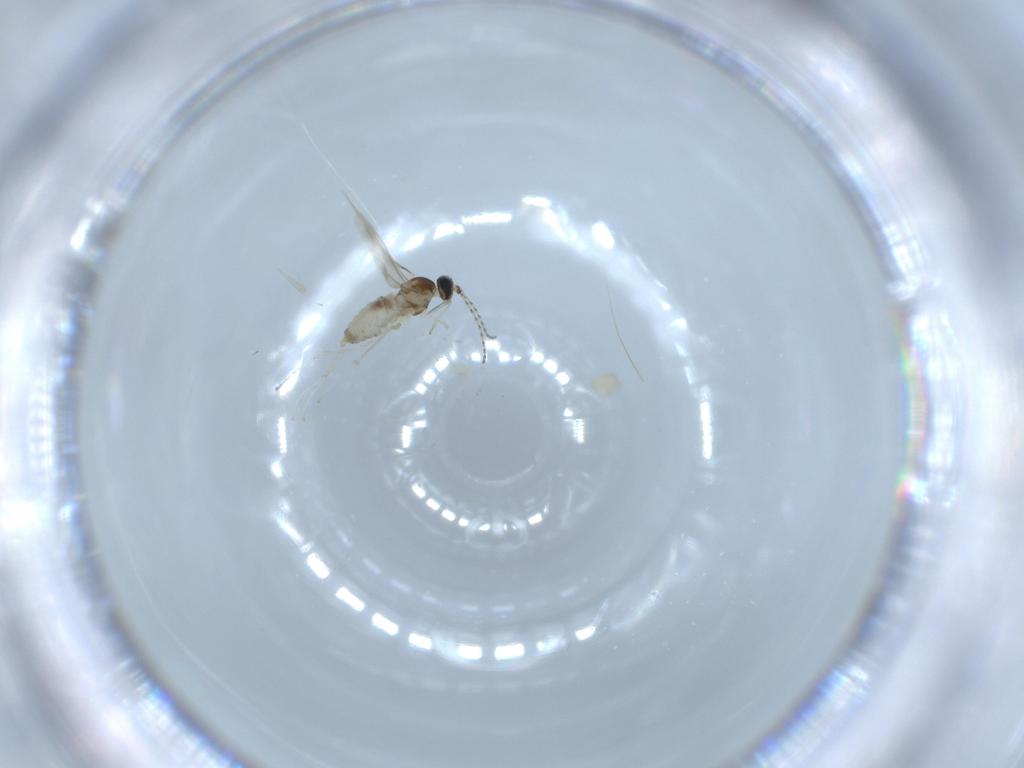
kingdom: Animalia
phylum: Arthropoda
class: Insecta
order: Diptera
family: Cecidomyiidae
